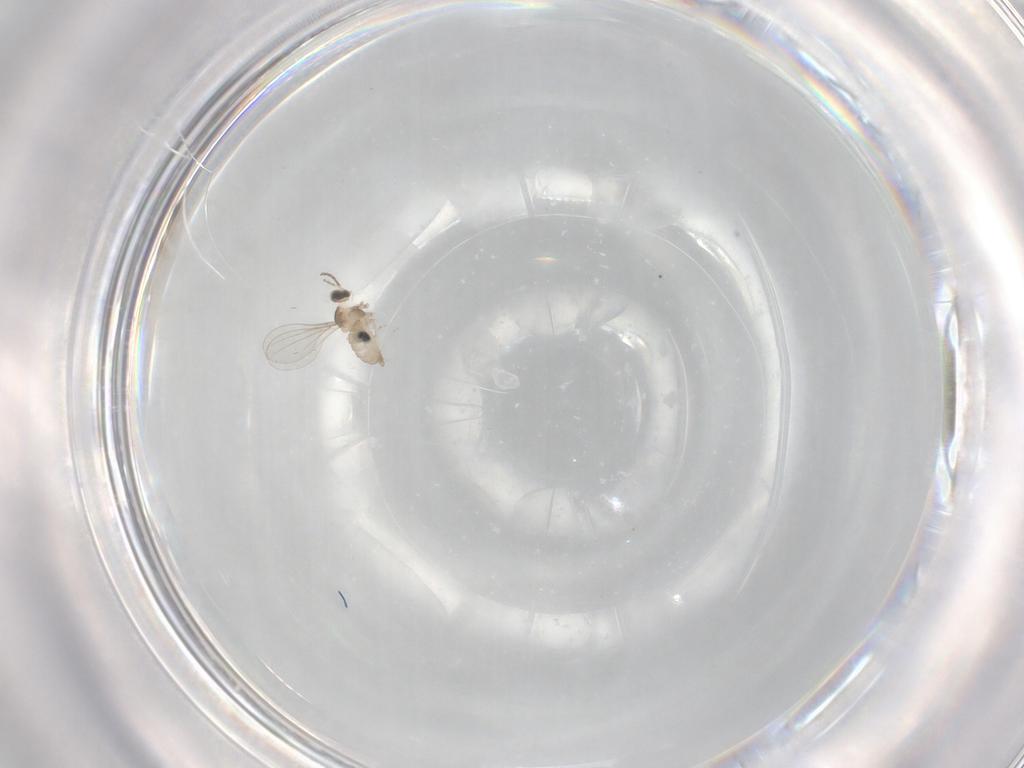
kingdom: Animalia
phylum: Arthropoda
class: Insecta
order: Diptera
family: Cecidomyiidae
